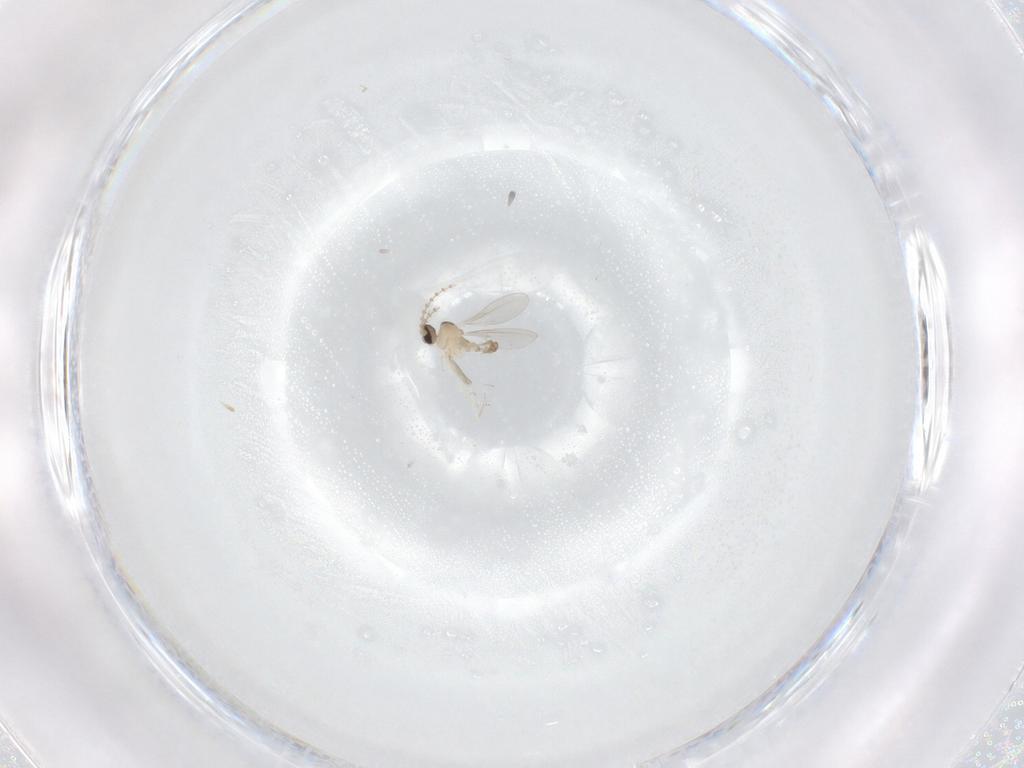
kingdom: Animalia
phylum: Arthropoda
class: Insecta
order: Diptera
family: Cecidomyiidae
